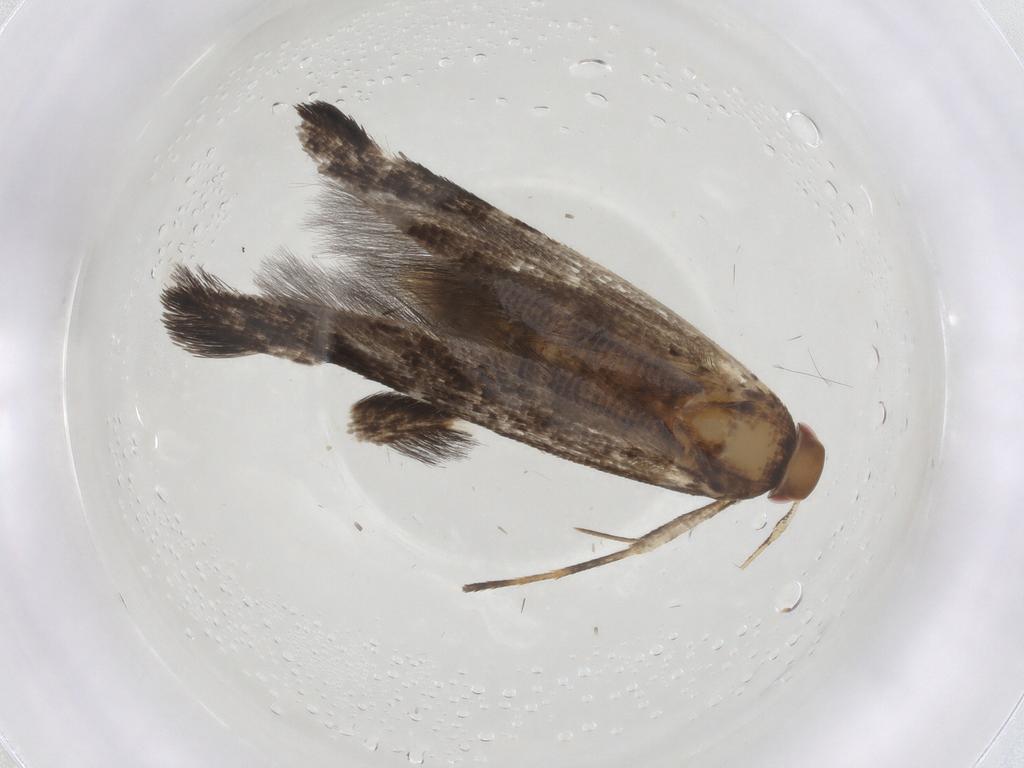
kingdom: Animalia
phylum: Arthropoda
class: Insecta
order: Lepidoptera
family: Cosmopterigidae
